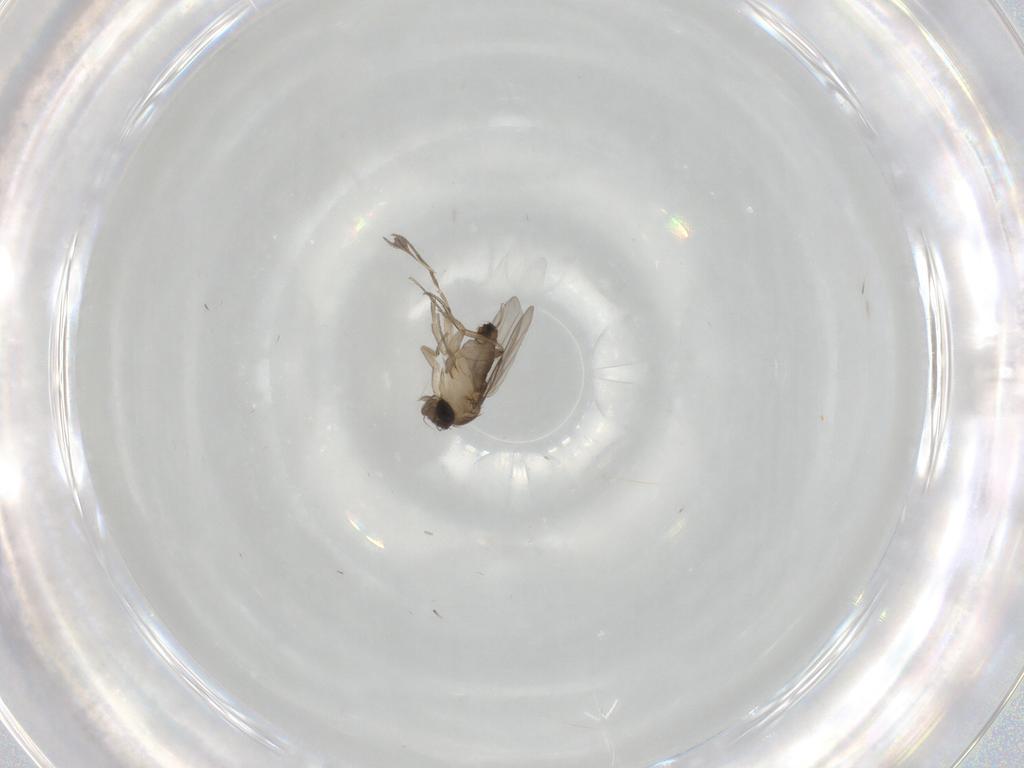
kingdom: Animalia
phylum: Arthropoda
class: Insecta
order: Diptera
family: Phoridae
